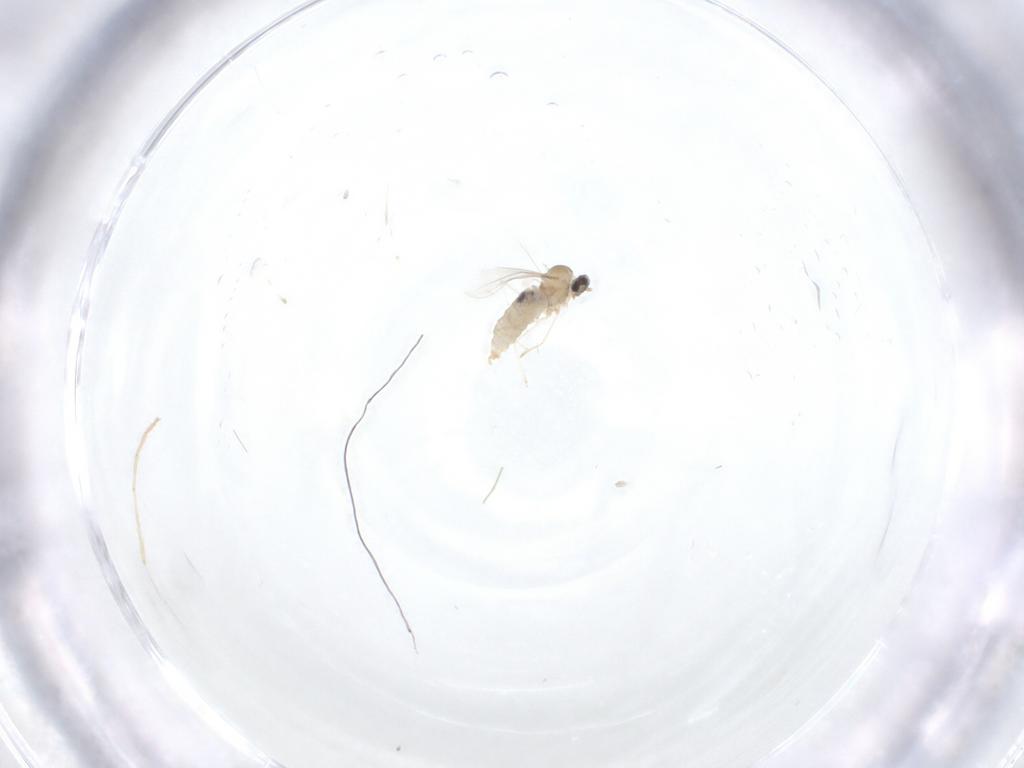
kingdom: Animalia
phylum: Arthropoda
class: Insecta
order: Diptera
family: Cecidomyiidae
